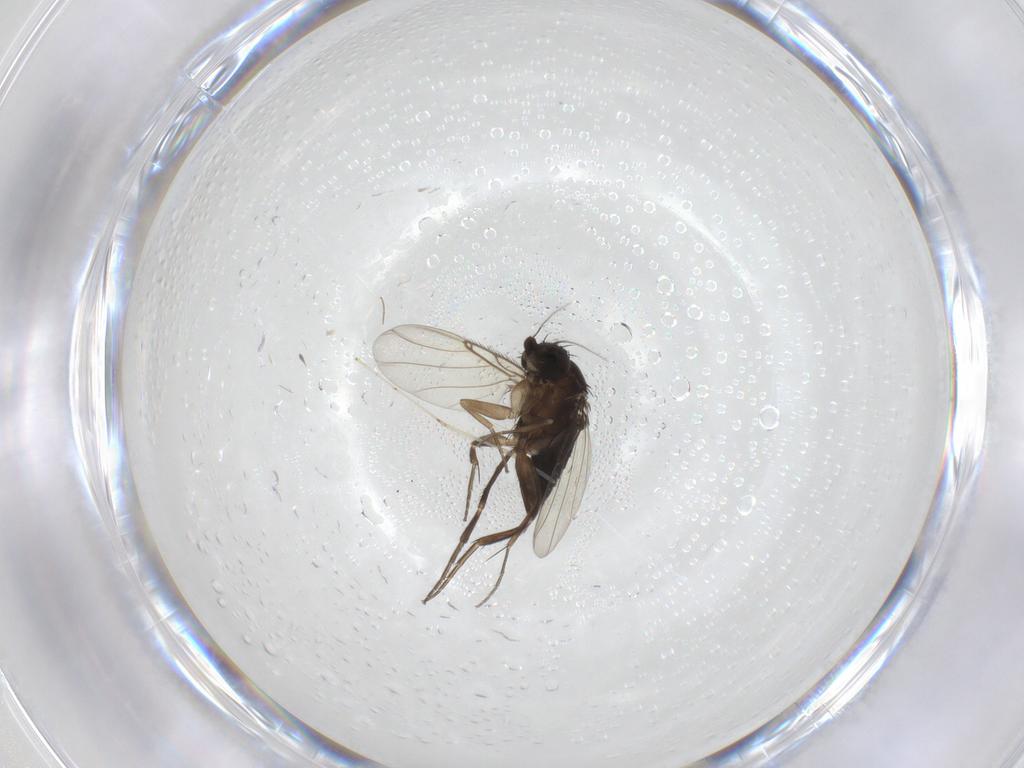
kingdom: Animalia
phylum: Arthropoda
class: Insecta
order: Diptera
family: Phoridae
